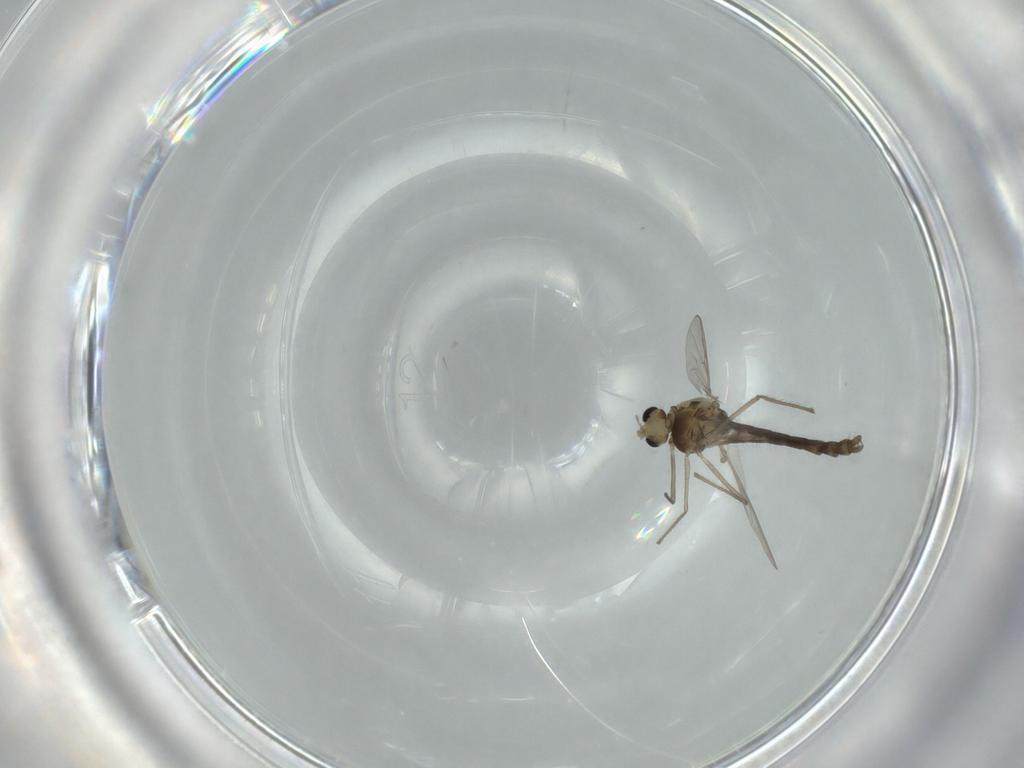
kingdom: Animalia
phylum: Arthropoda
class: Insecta
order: Diptera
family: Chironomidae
